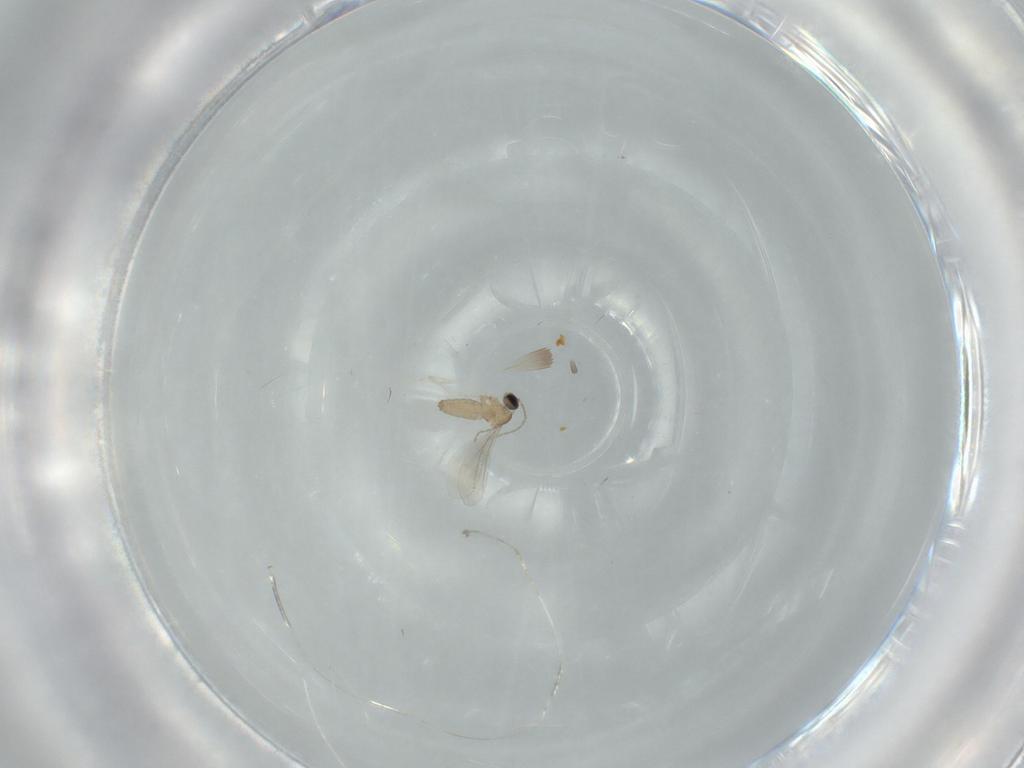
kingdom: Animalia
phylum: Arthropoda
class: Insecta
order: Diptera
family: Cecidomyiidae
